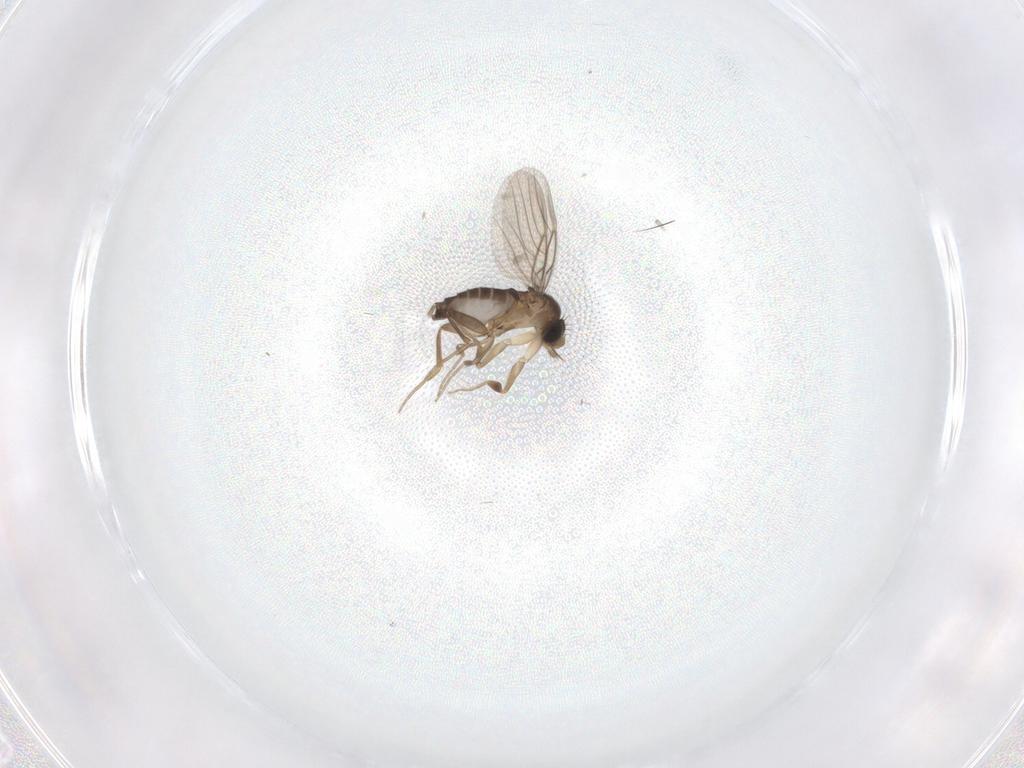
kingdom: Animalia
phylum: Arthropoda
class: Insecta
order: Diptera
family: Phoridae
